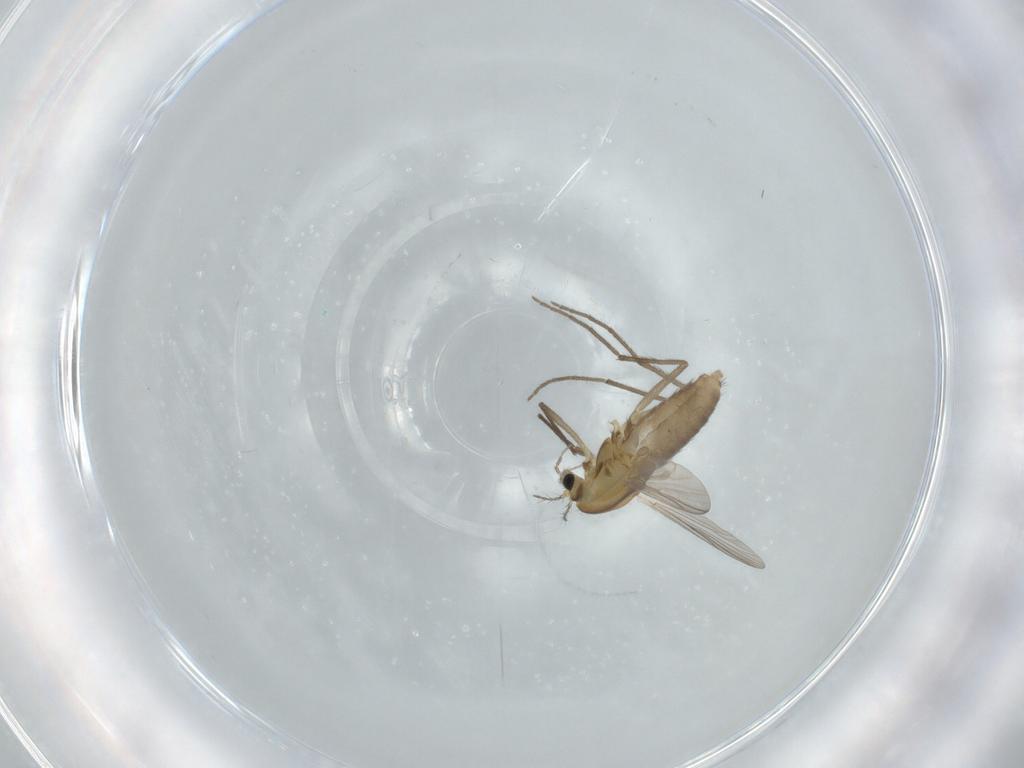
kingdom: Animalia
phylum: Arthropoda
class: Insecta
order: Diptera
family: Chironomidae
